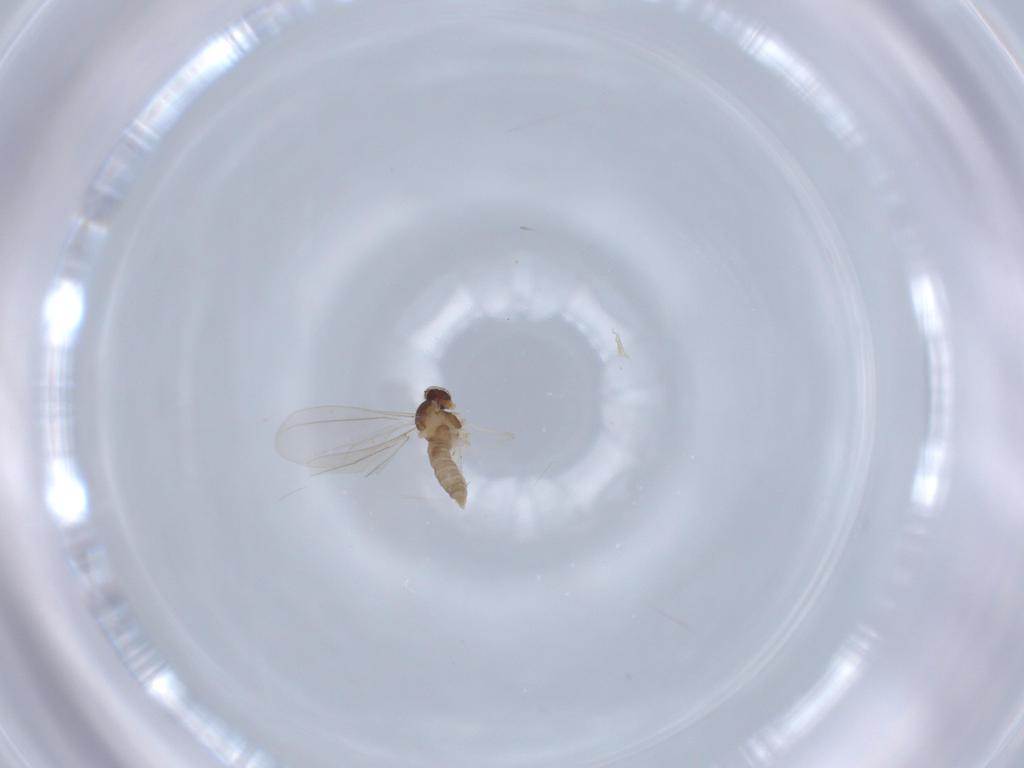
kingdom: Animalia
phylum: Arthropoda
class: Insecta
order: Diptera
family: Cecidomyiidae
